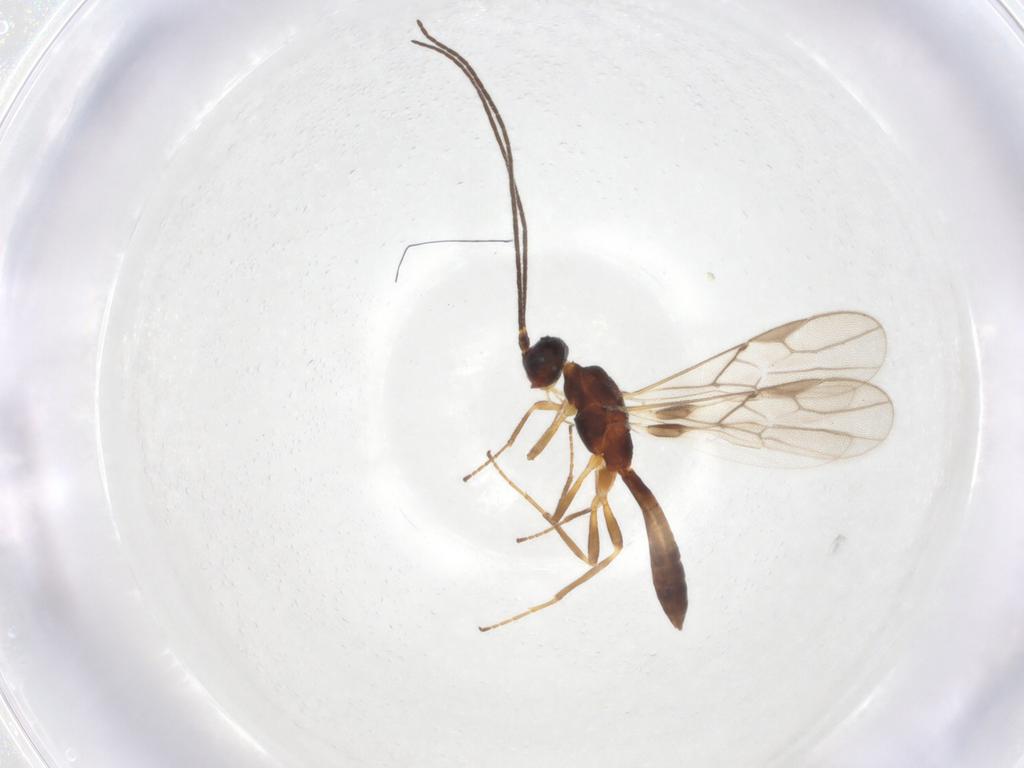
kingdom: Animalia
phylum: Arthropoda
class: Insecta
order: Hymenoptera
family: Braconidae
